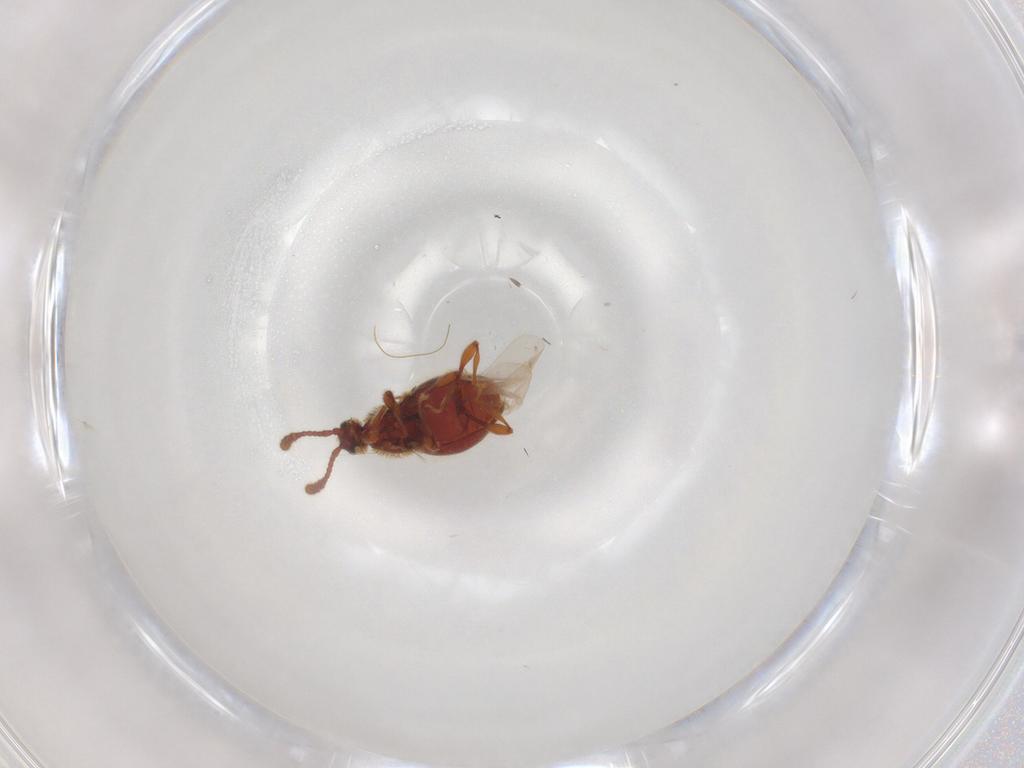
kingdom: Animalia
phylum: Arthropoda
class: Insecta
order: Coleoptera
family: Staphylinidae
